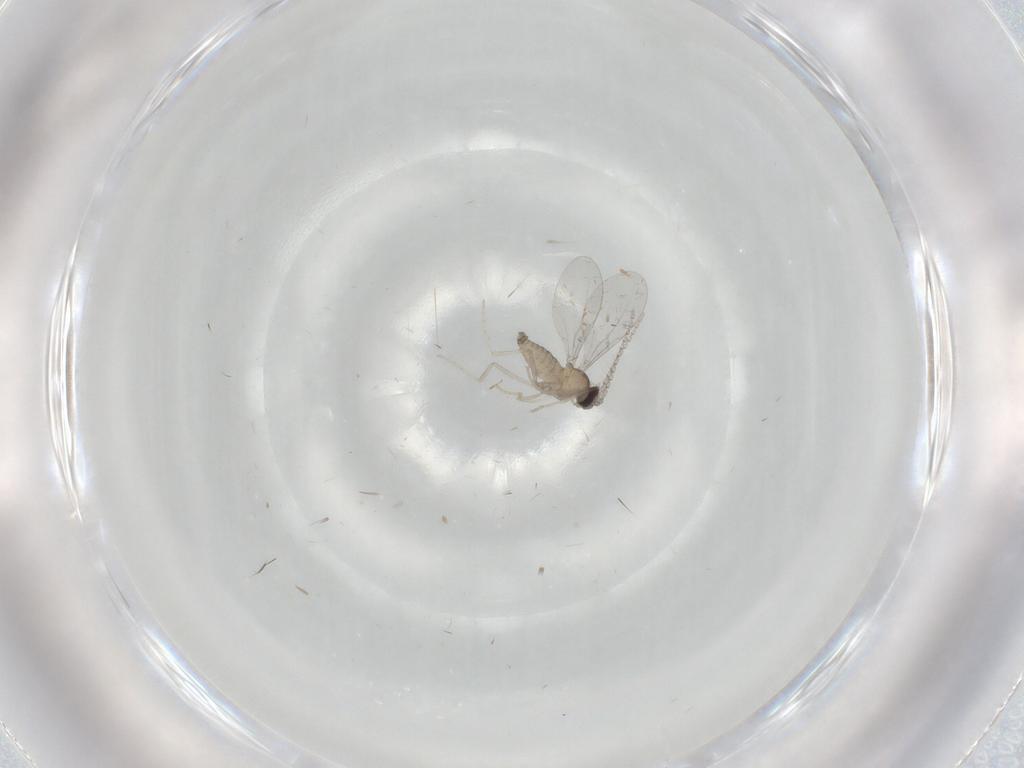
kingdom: Animalia
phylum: Arthropoda
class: Insecta
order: Diptera
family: Cecidomyiidae
